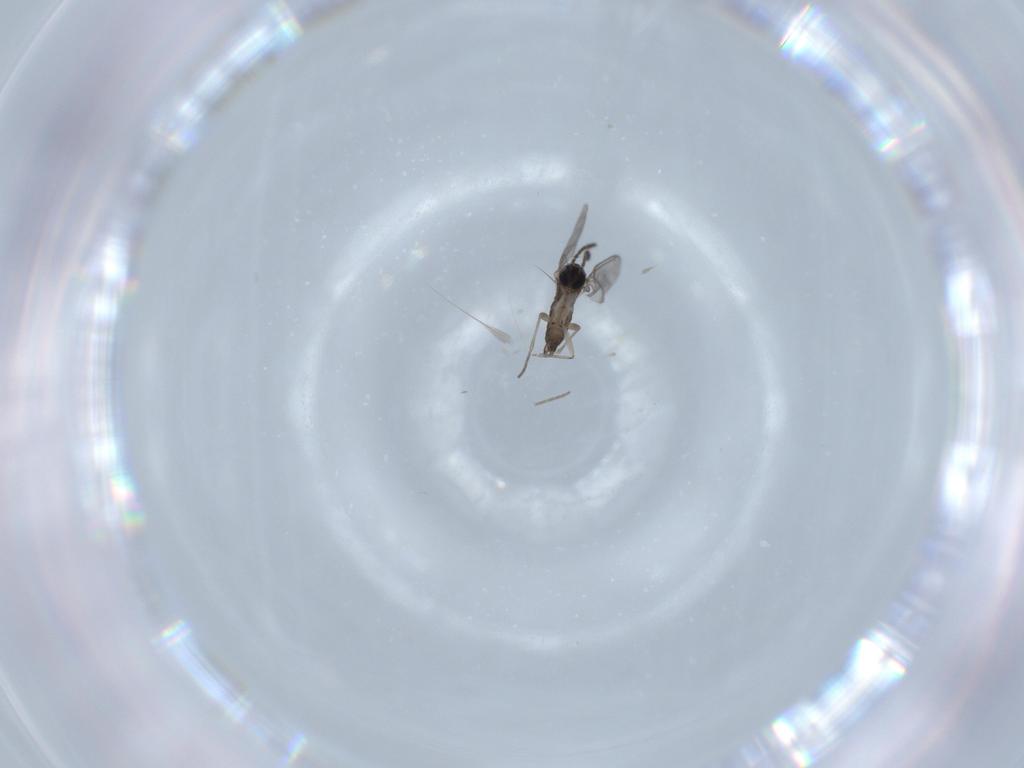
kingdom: Animalia
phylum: Arthropoda
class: Insecta
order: Diptera
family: Sciaridae
